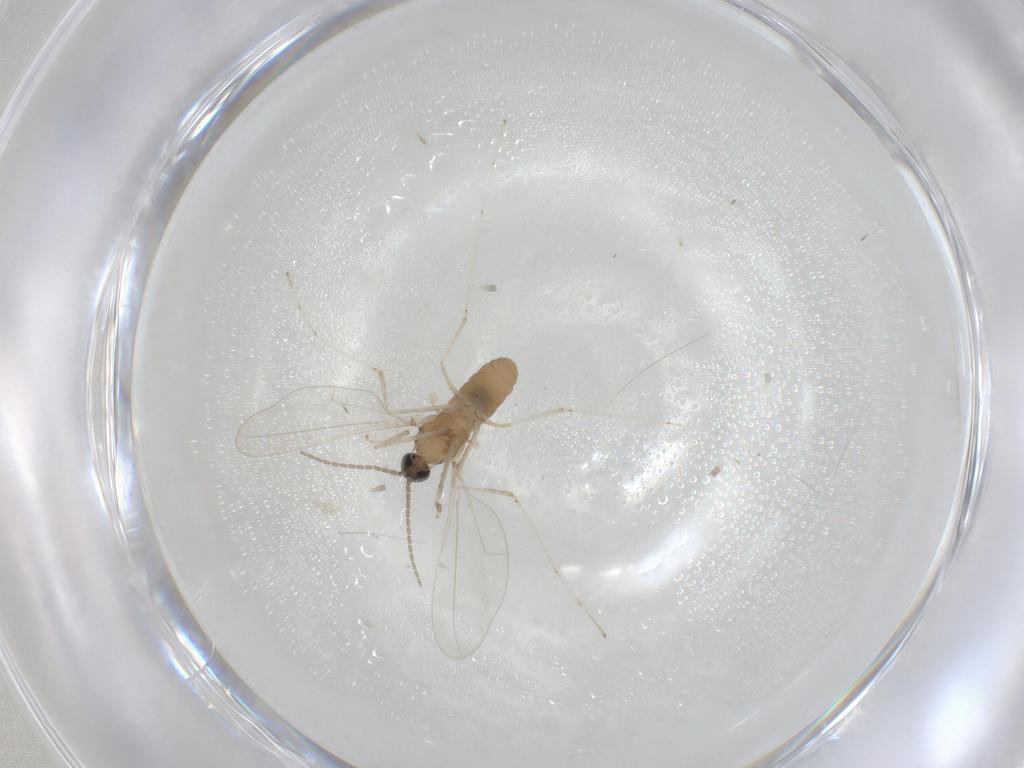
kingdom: Animalia
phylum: Arthropoda
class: Insecta
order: Diptera
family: Cecidomyiidae
